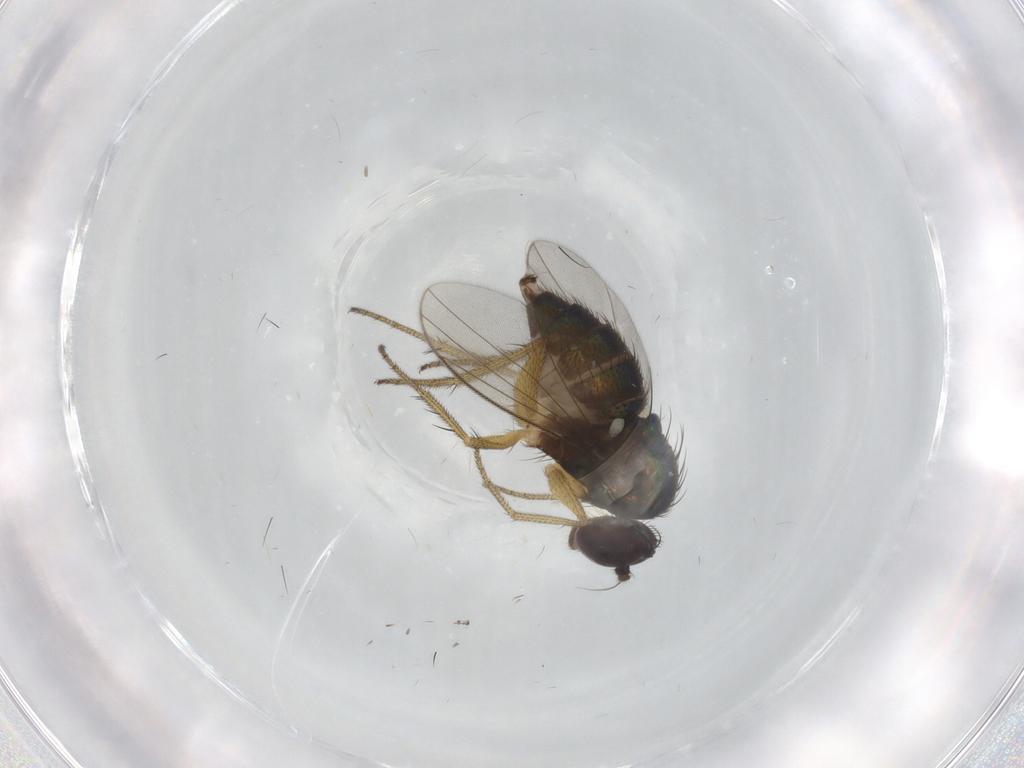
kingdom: Animalia
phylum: Arthropoda
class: Insecta
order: Diptera
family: Dolichopodidae
